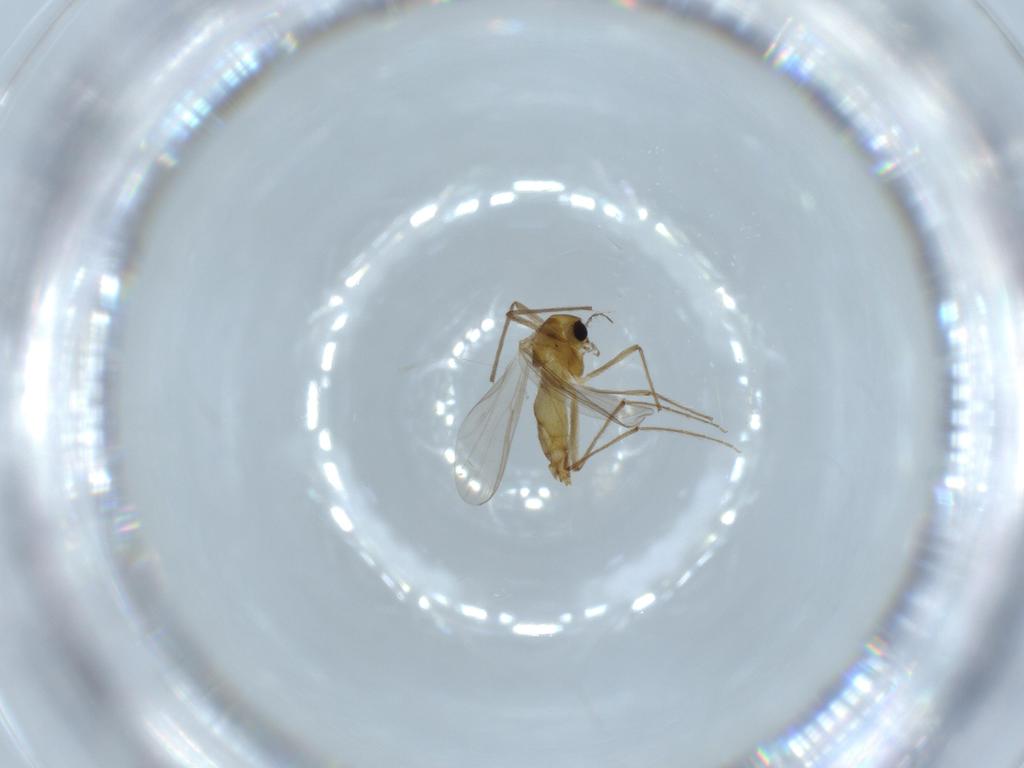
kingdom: Animalia
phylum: Arthropoda
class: Insecta
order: Diptera
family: Calliphoridae
